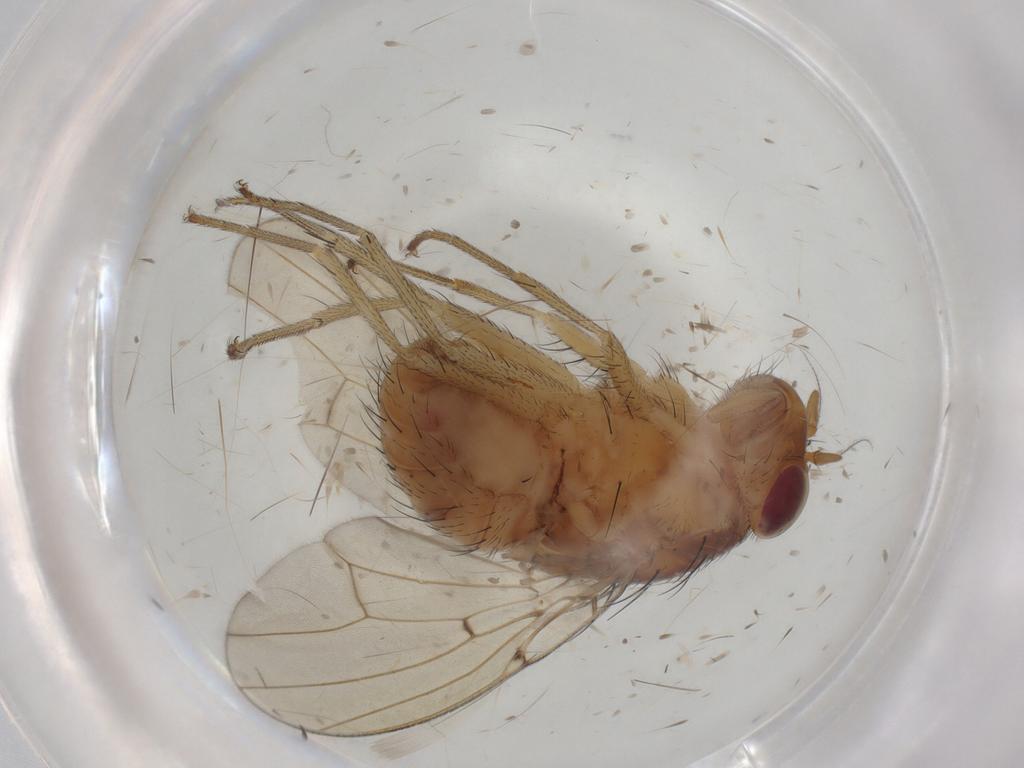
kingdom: Animalia
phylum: Arthropoda
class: Insecta
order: Diptera
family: Ephydridae
